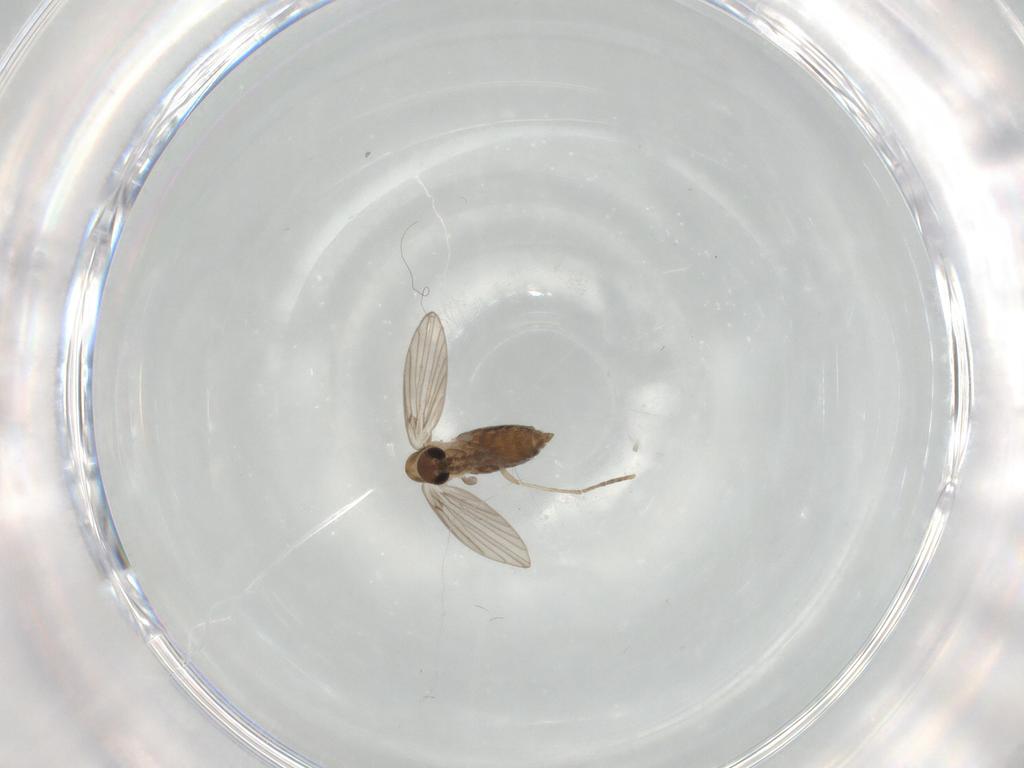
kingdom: Animalia
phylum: Arthropoda
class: Insecta
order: Diptera
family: Chironomidae
